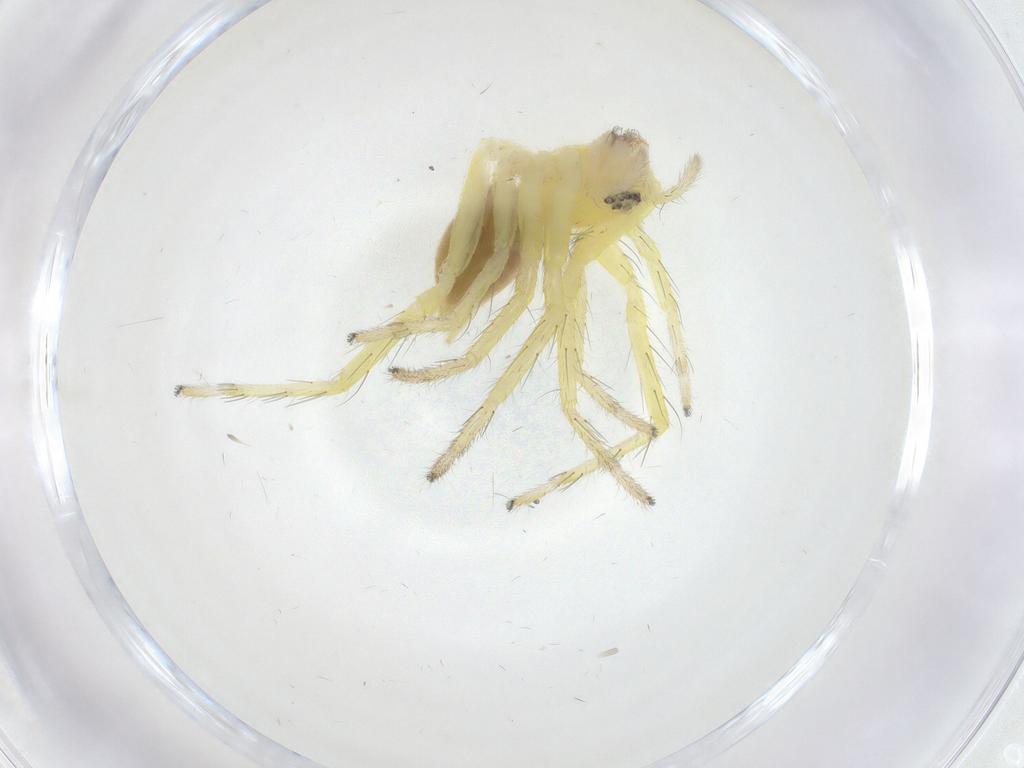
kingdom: Animalia
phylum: Arthropoda
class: Arachnida
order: Araneae
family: Anyphaenidae
